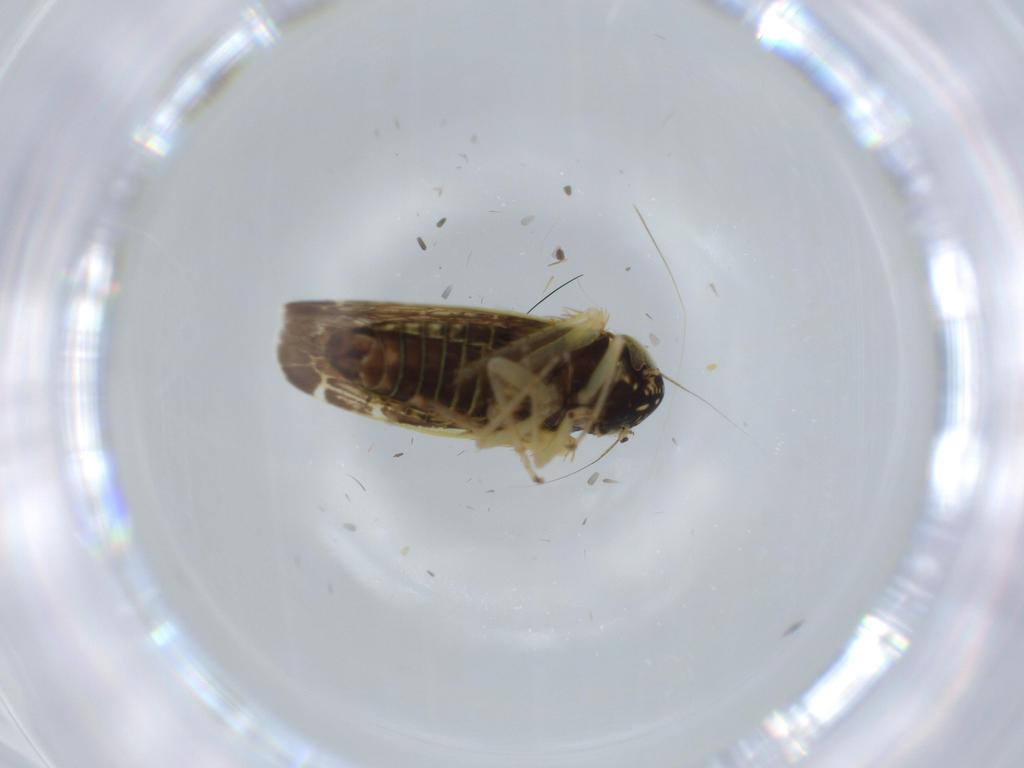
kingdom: Animalia
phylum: Arthropoda
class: Insecta
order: Hemiptera
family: Cicadellidae
